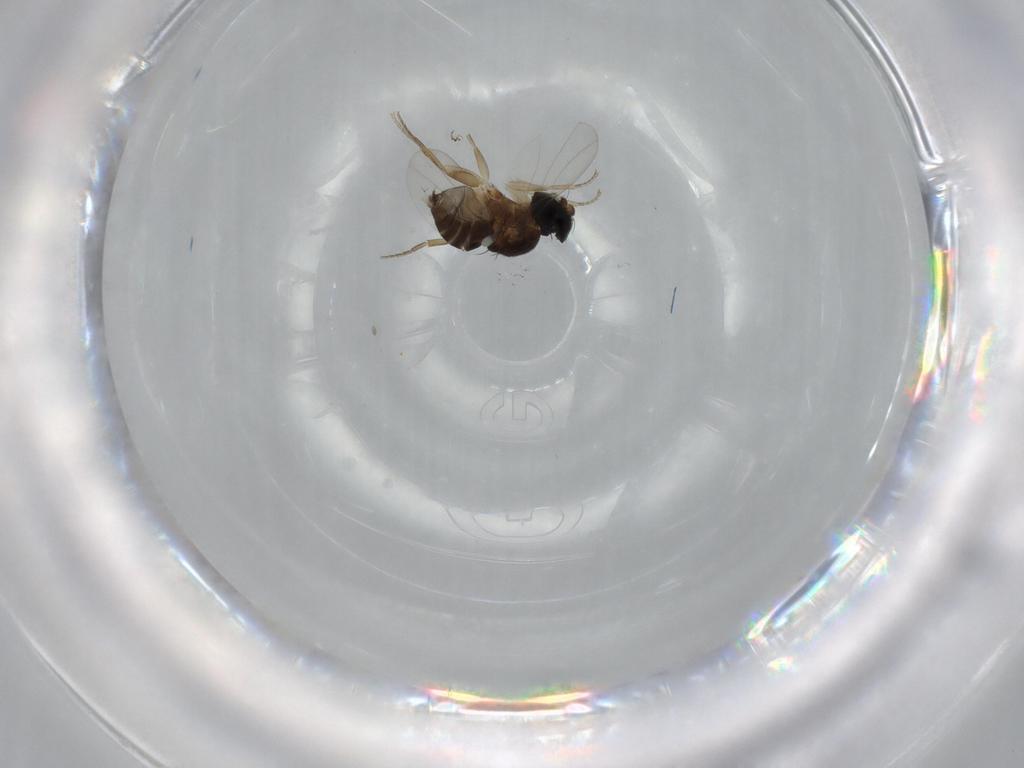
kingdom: Animalia
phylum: Arthropoda
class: Insecta
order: Diptera
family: Phoridae
